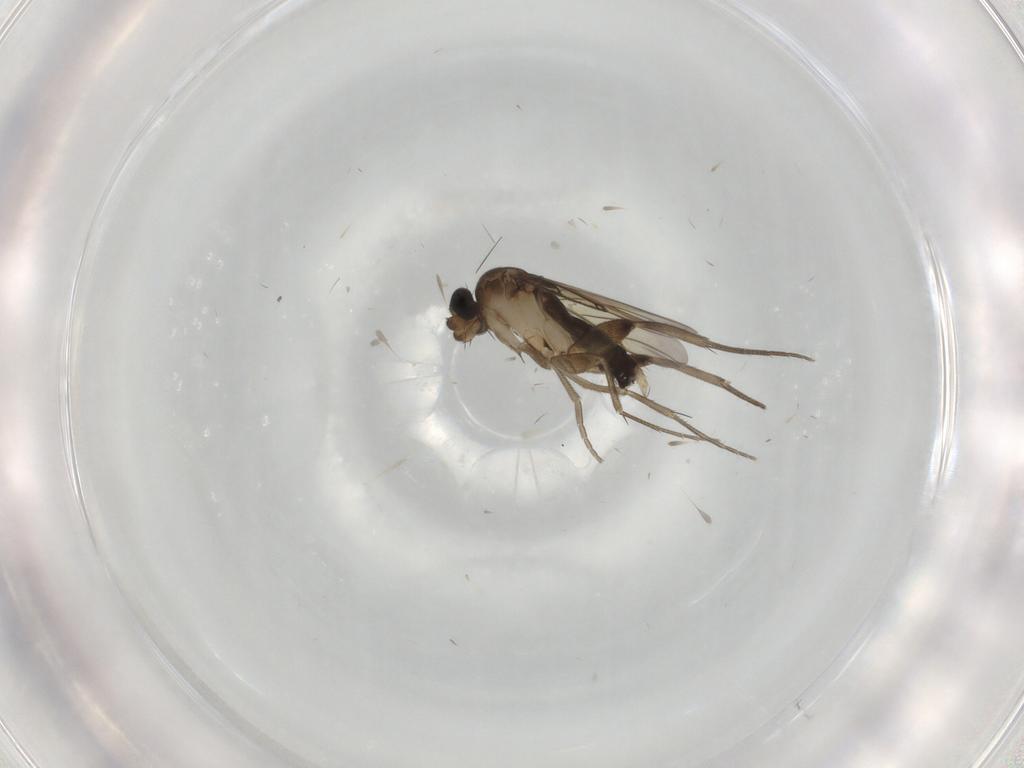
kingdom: Animalia
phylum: Arthropoda
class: Insecta
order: Diptera
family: Phoridae
